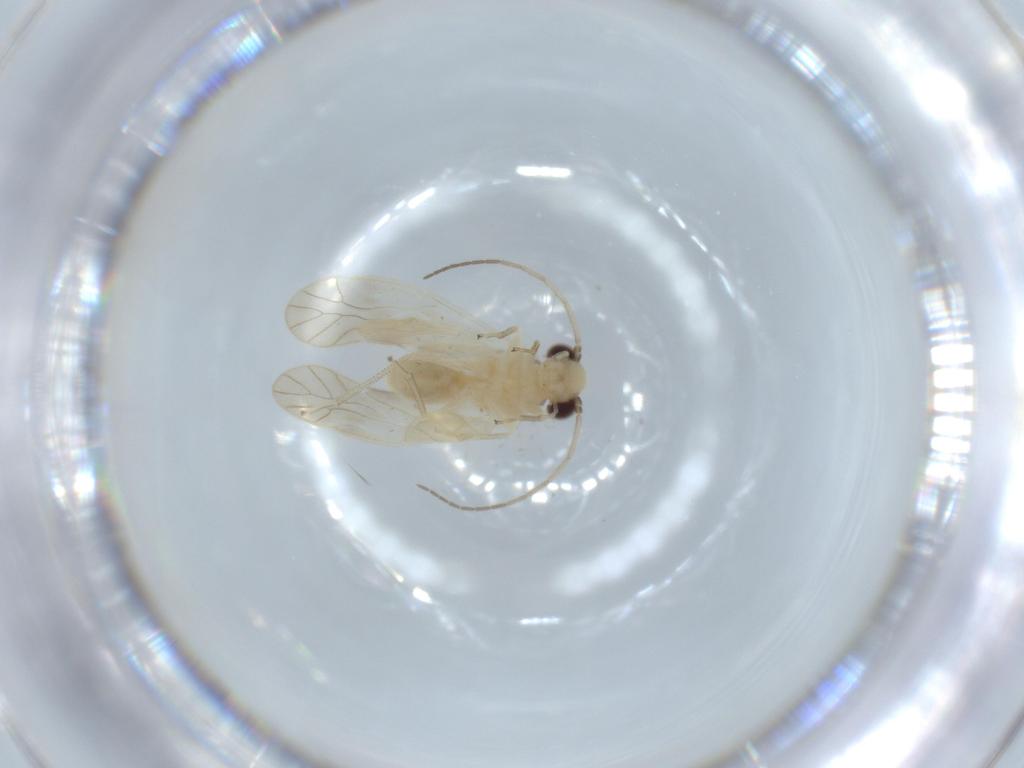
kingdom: Animalia
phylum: Arthropoda
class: Insecta
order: Psocodea
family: Caeciliusidae
